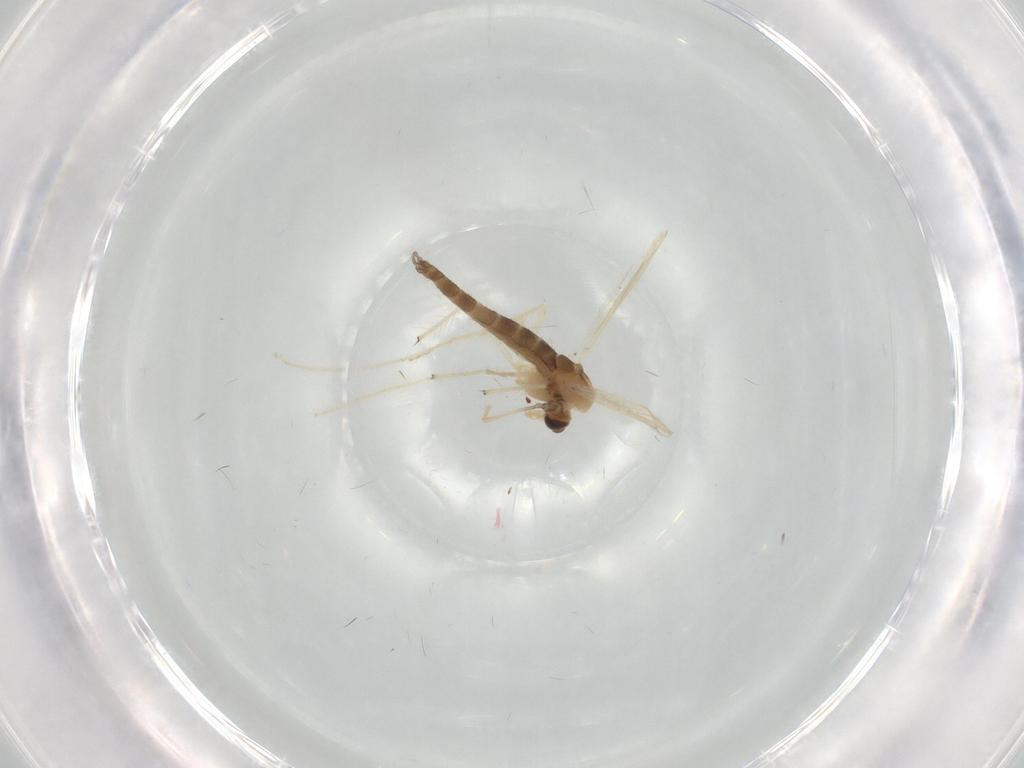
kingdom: Animalia
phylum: Arthropoda
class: Insecta
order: Diptera
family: Chironomidae
